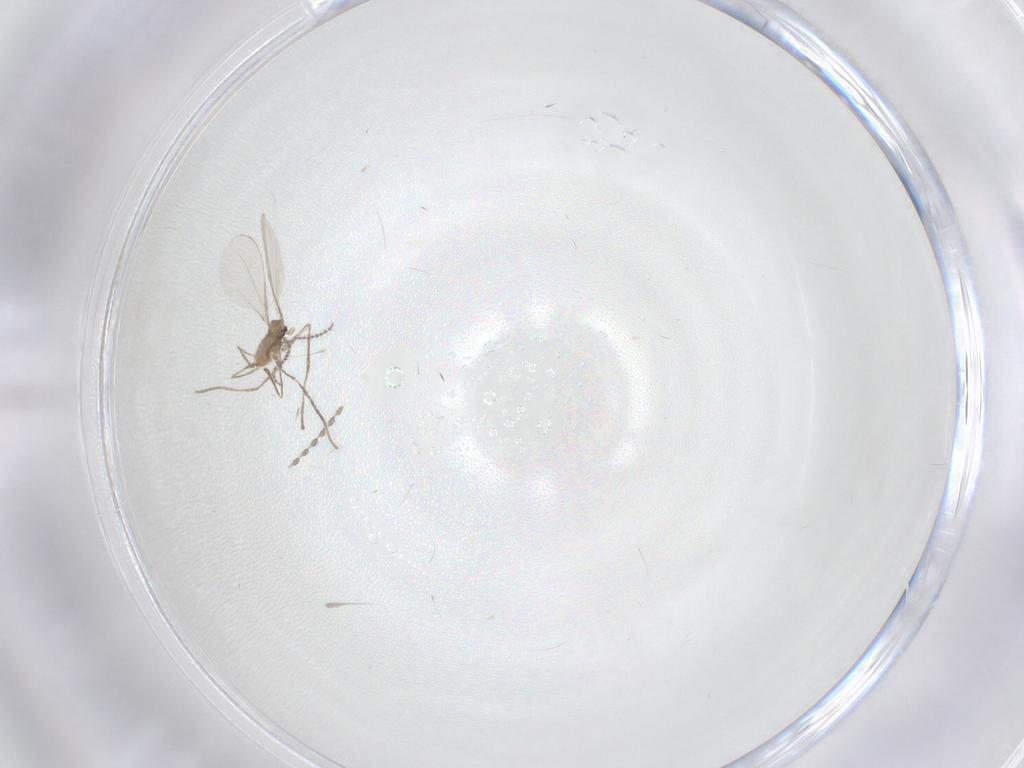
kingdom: Animalia
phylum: Arthropoda
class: Insecta
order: Diptera
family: Cecidomyiidae
